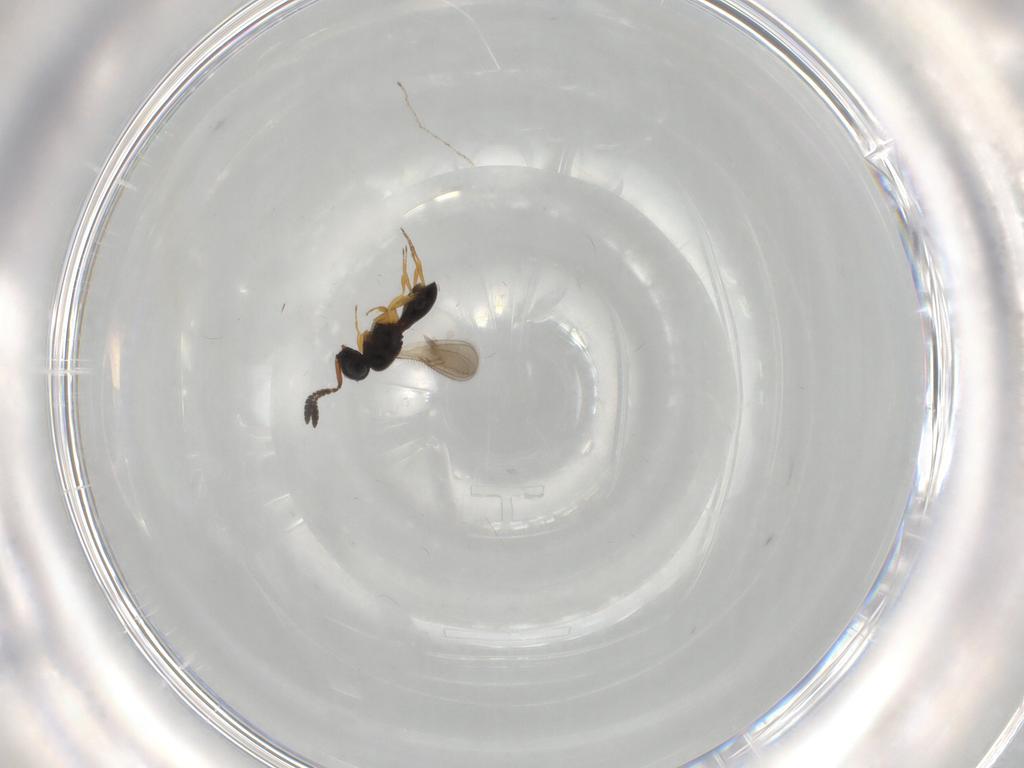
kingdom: Animalia
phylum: Arthropoda
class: Insecta
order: Hymenoptera
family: Scelionidae
